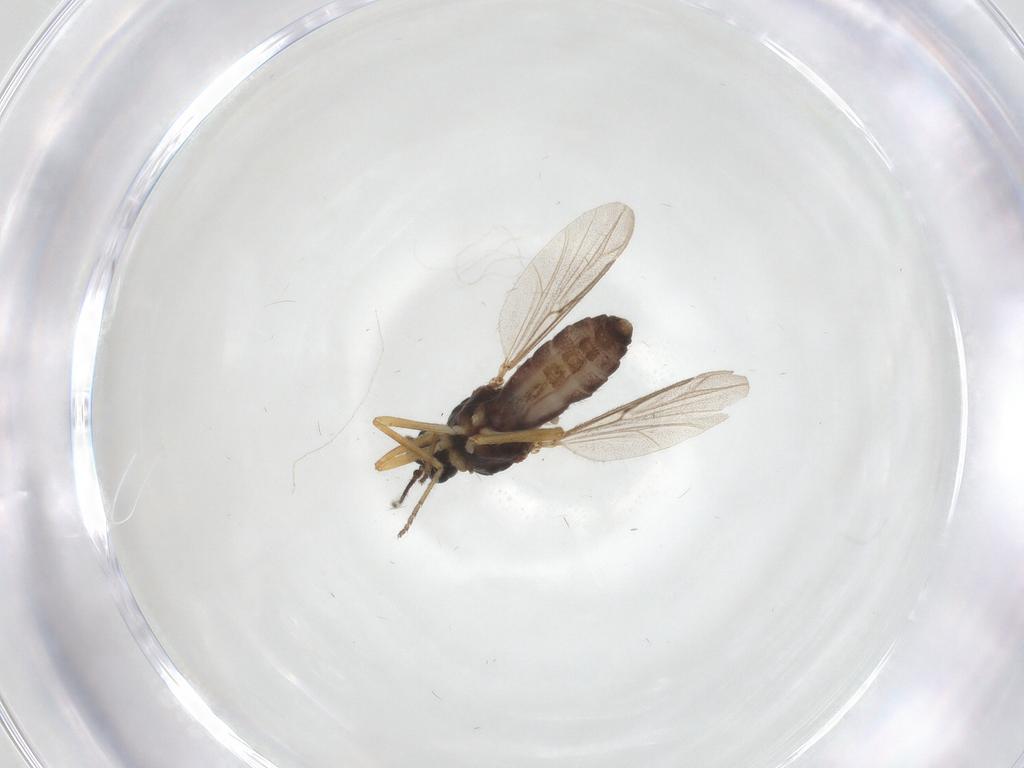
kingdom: Animalia
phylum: Arthropoda
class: Insecta
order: Diptera
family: Ceratopogonidae
